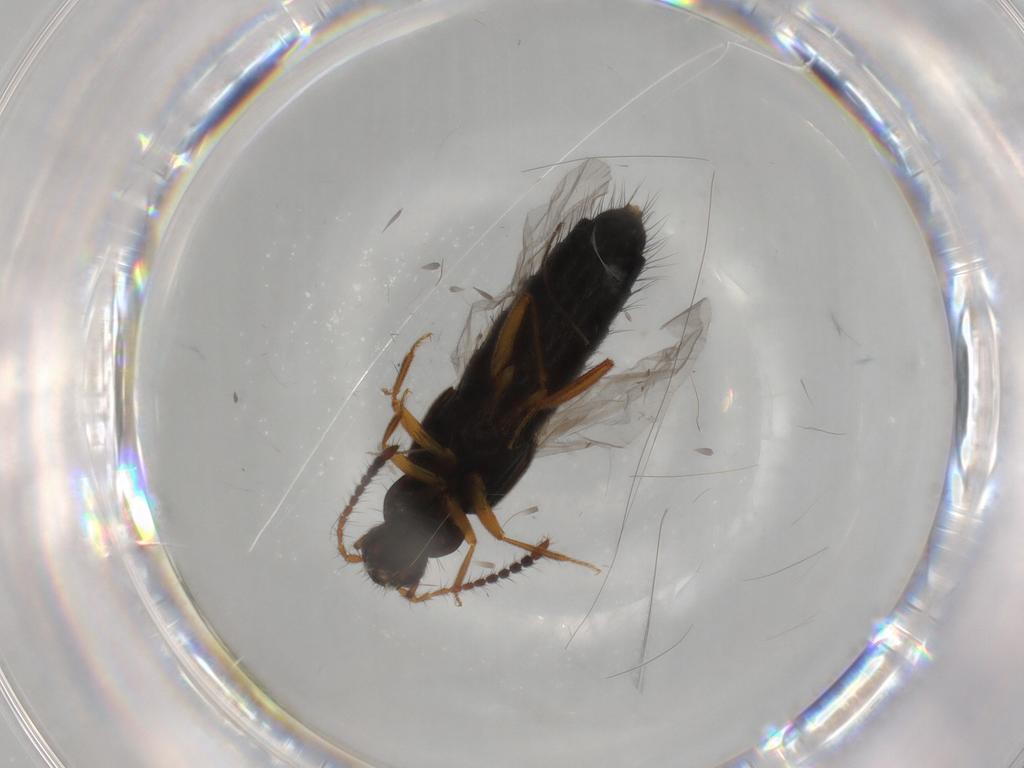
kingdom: Animalia
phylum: Arthropoda
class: Insecta
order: Coleoptera
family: Staphylinidae
